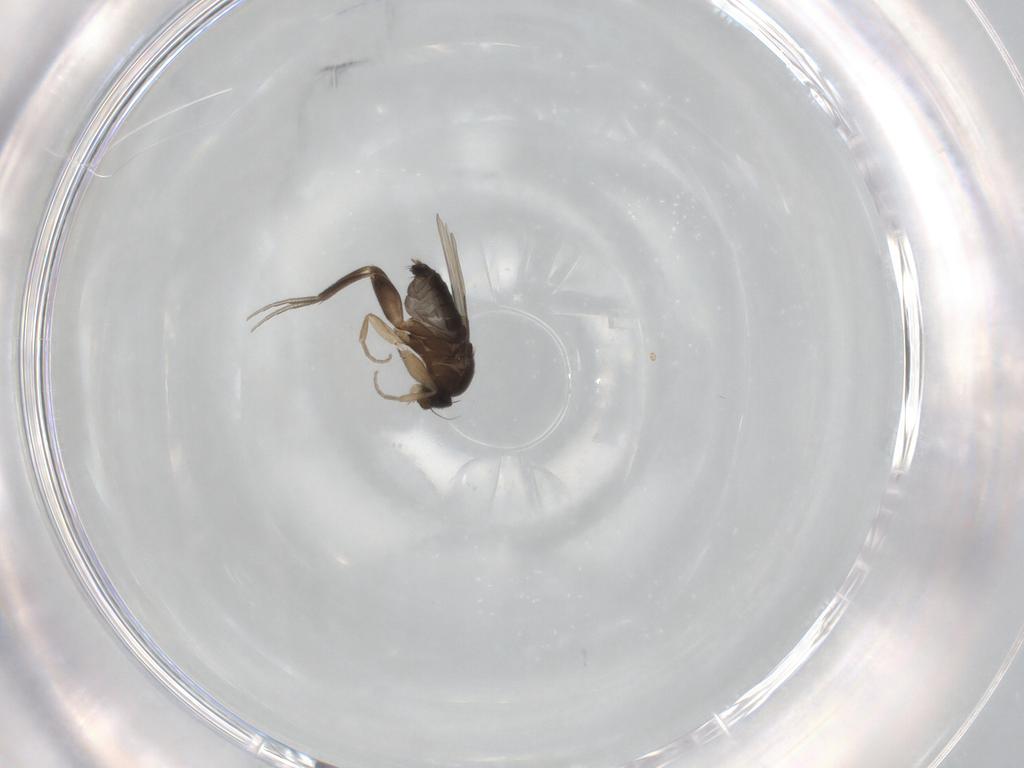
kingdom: Animalia
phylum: Arthropoda
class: Insecta
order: Diptera
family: Phoridae
